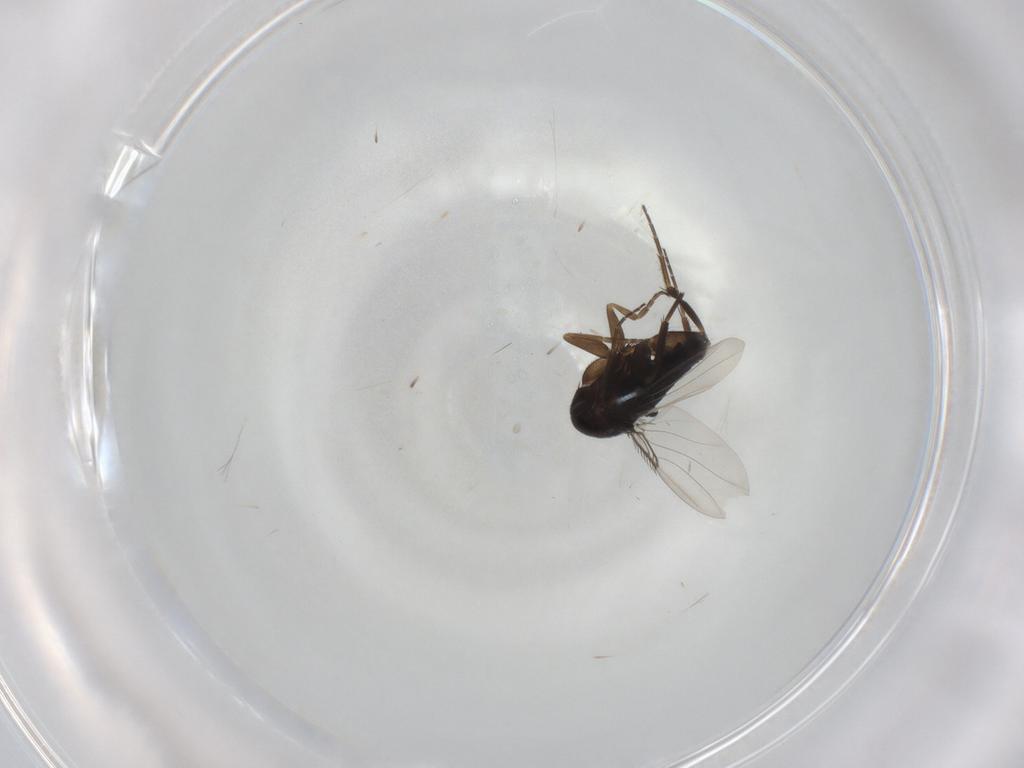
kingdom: Animalia
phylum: Arthropoda
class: Insecta
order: Diptera
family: Phoridae
